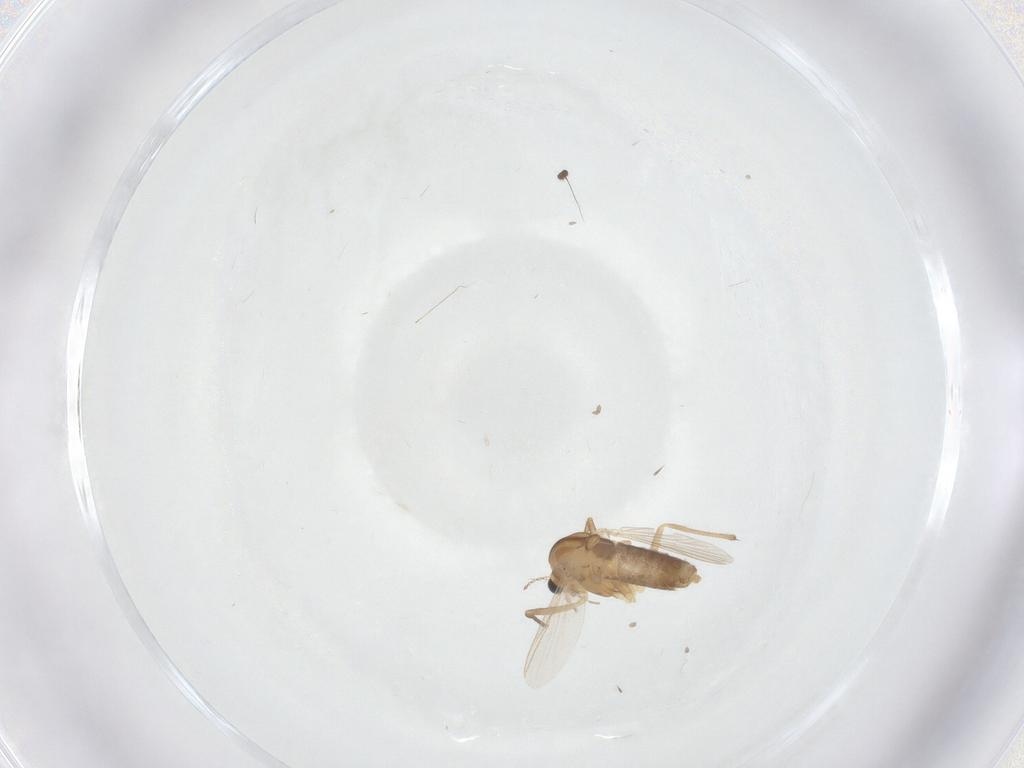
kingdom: Animalia
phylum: Arthropoda
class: Insecta
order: Diptera
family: Chironomidae
